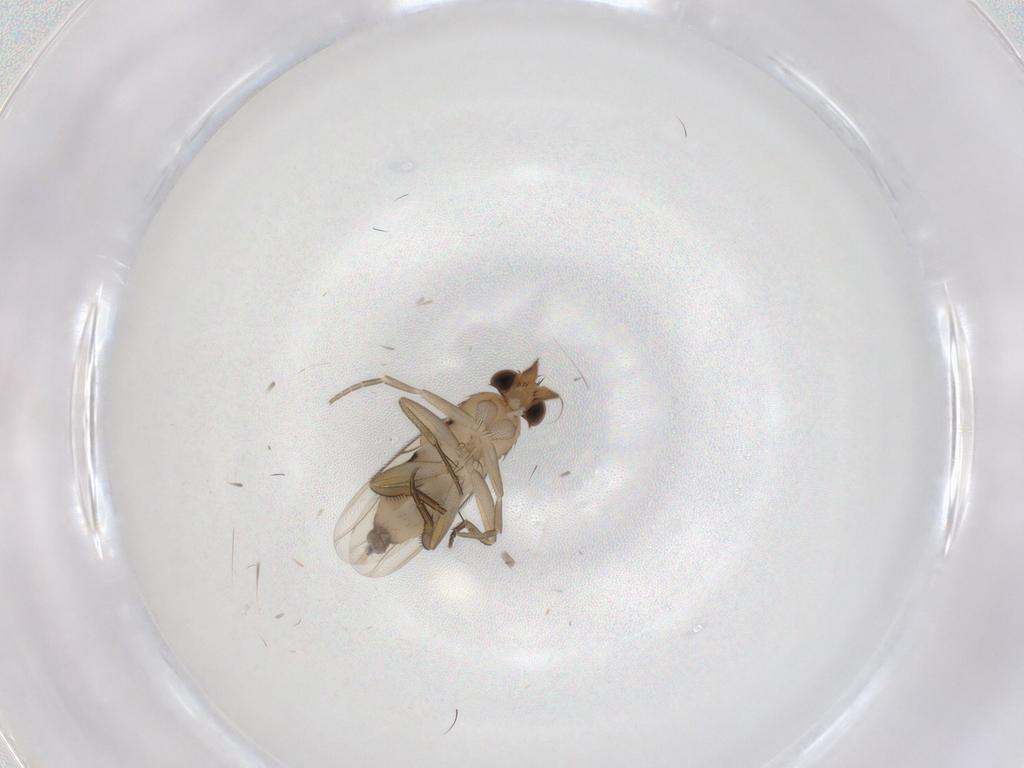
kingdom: Animalia
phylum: Arthropoda
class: Insecta
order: Diptera
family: Phoridae
